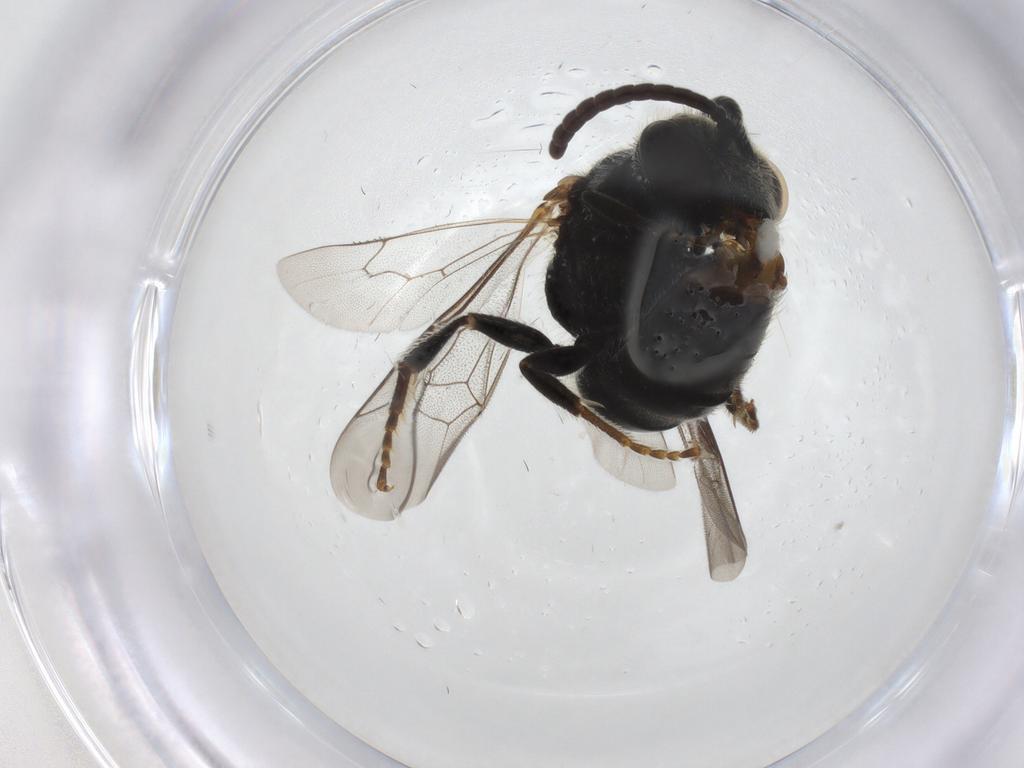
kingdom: Animalia
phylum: Arthropoda
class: Insecta
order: Hymenoptera
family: Halictidae
